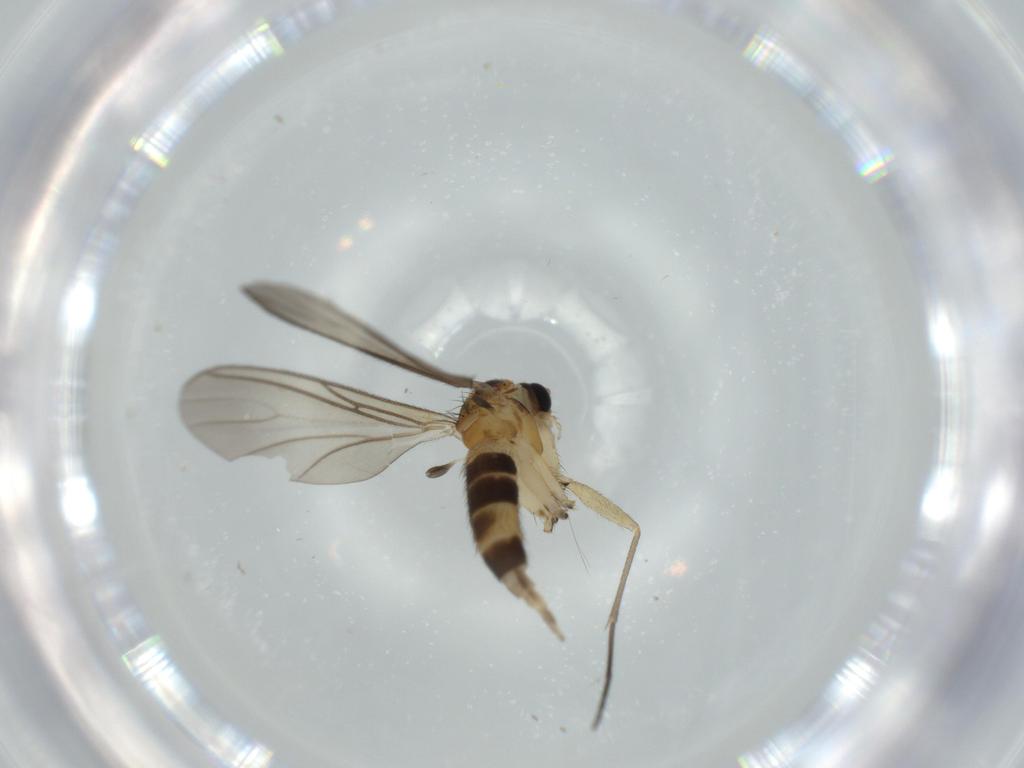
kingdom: Animalia
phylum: Arthropoda
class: Insecta
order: Diptera
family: Sciaridae
